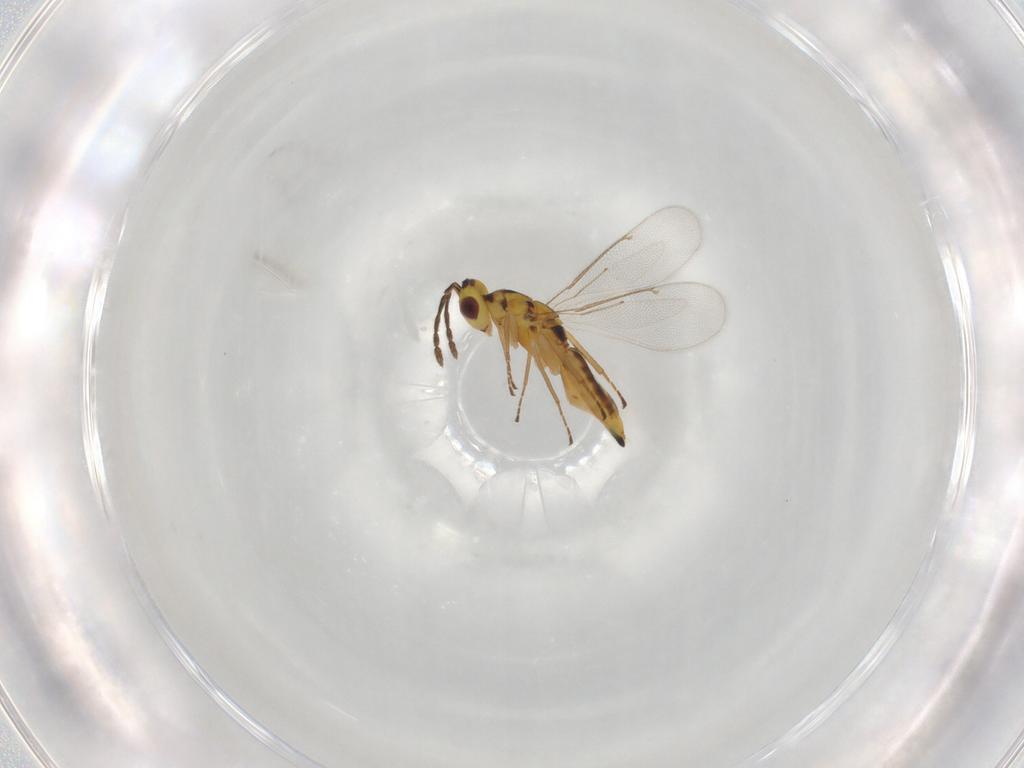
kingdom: Animalia
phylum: Arthropoda
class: Insecta
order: Hymenoptera
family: Eulophidae
